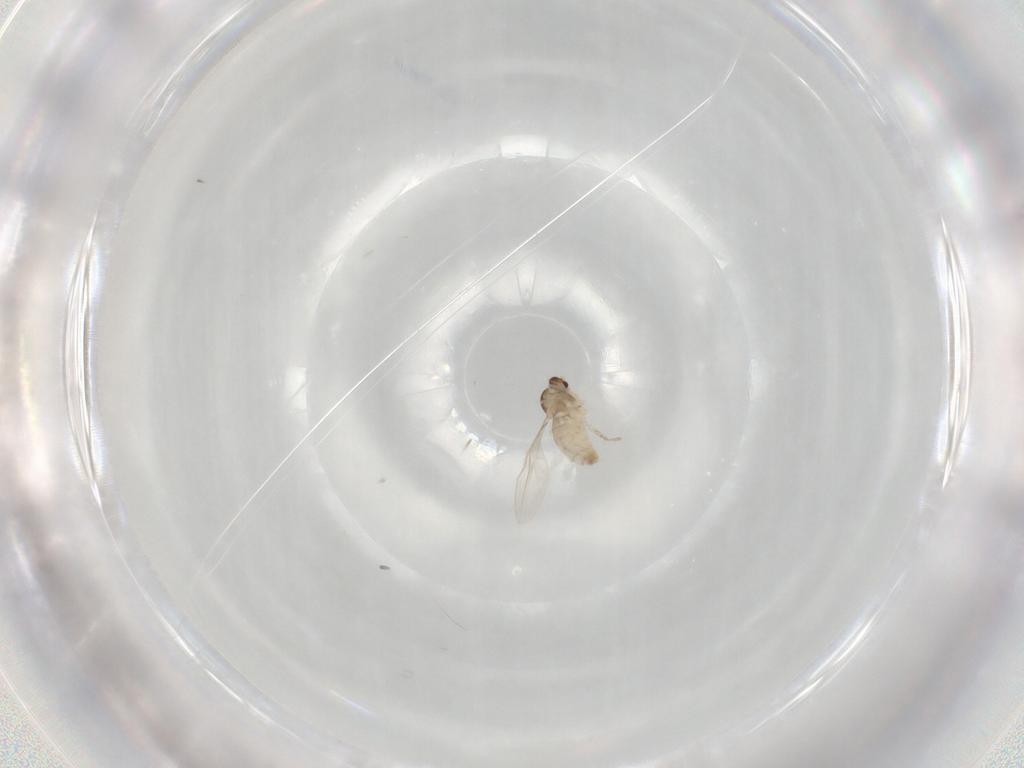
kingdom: Animalia
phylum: Arthropoda
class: Insecta
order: Diptera
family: Cecidomyiidae
